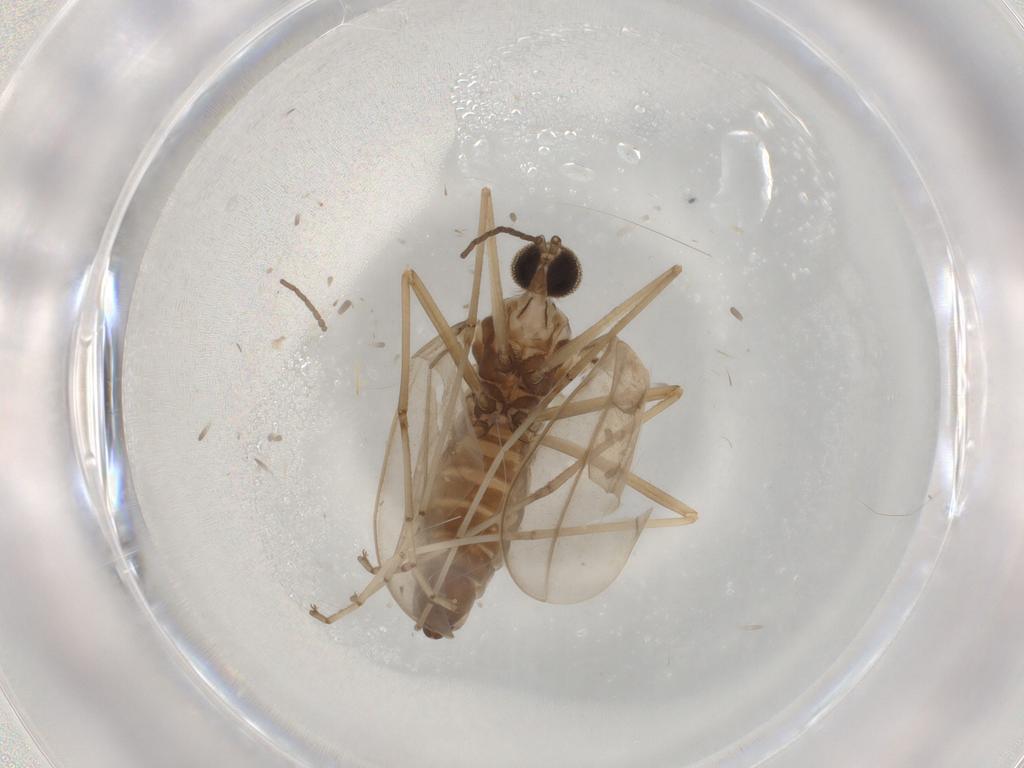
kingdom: Animalia
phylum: Arthropoda
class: Insecta
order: Diptera
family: Cecidomyiidae
